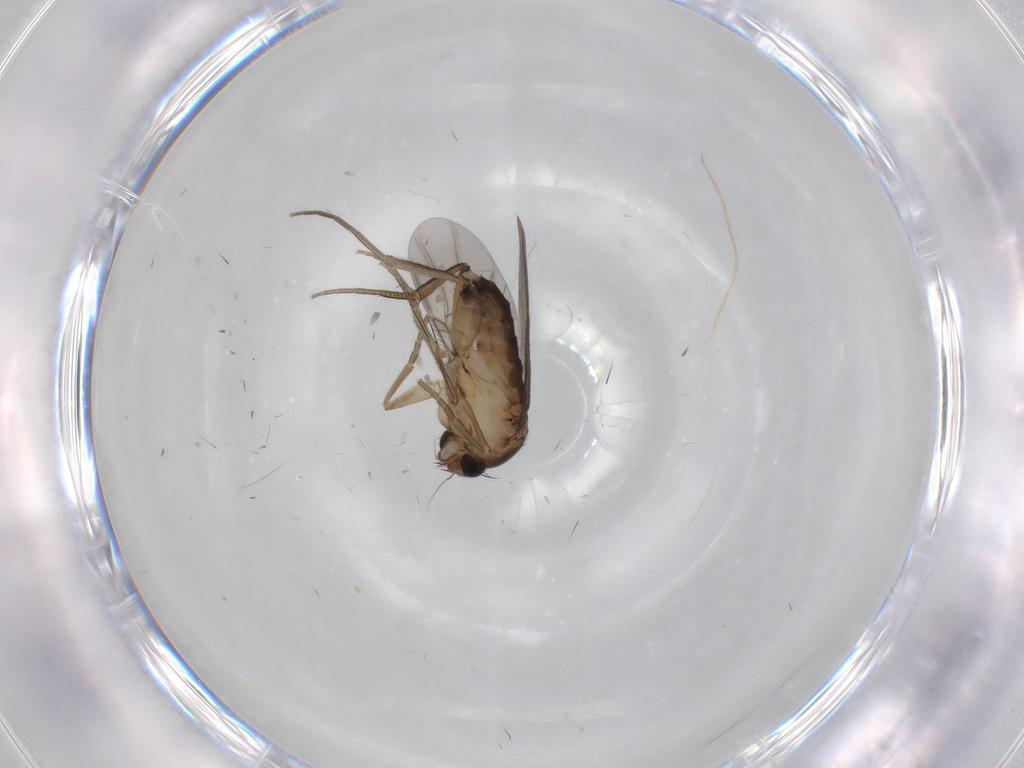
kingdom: Animalia
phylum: Arthropoda
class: Insecta
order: Diptera
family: Phoridae
